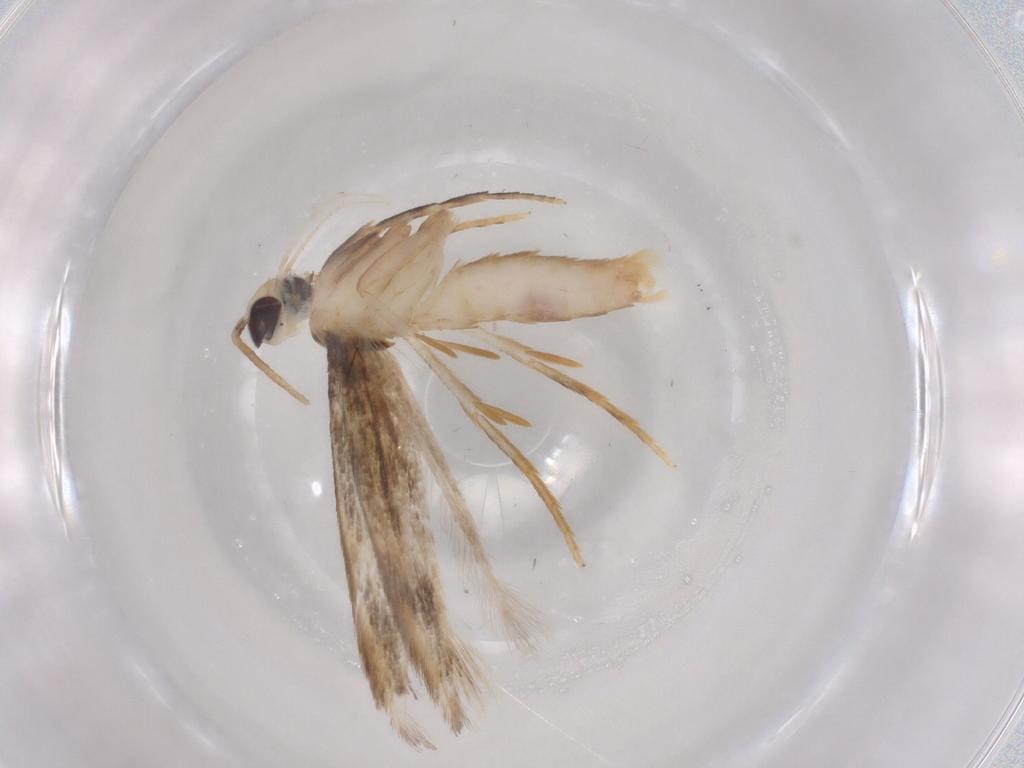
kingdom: Animalia
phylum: Arthropoda
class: Insecta
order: Lepidoptera
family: Coleophoridae
